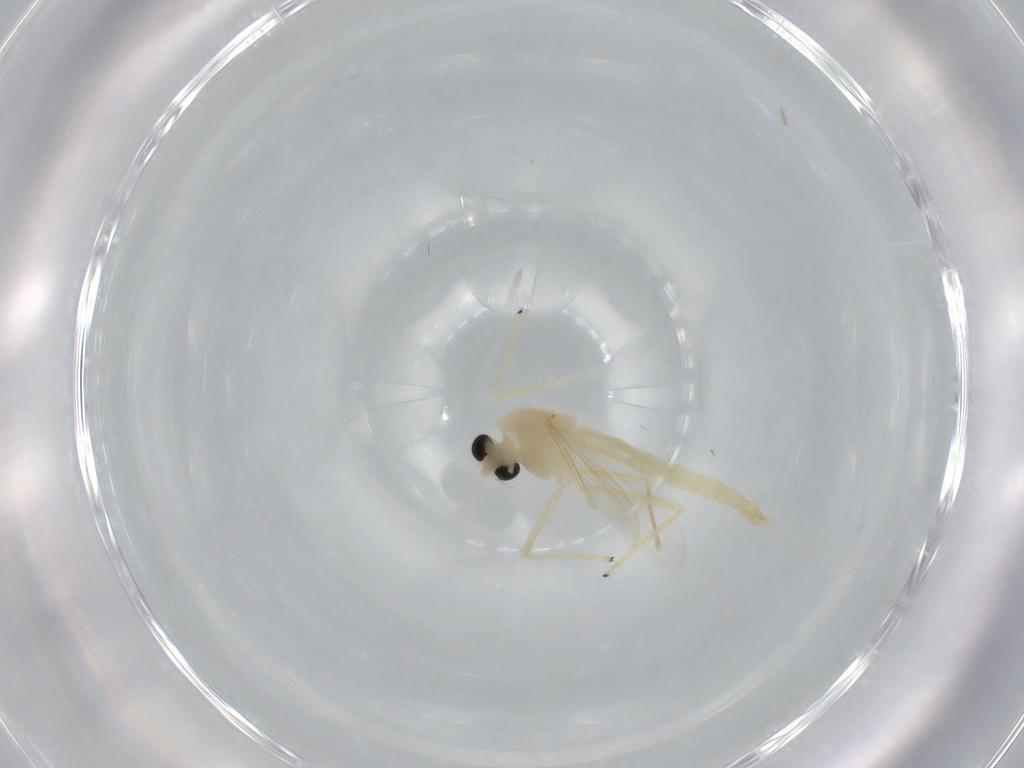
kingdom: Animalia
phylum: Arthropoda
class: Insecta
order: Diptera
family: Chironomidae
